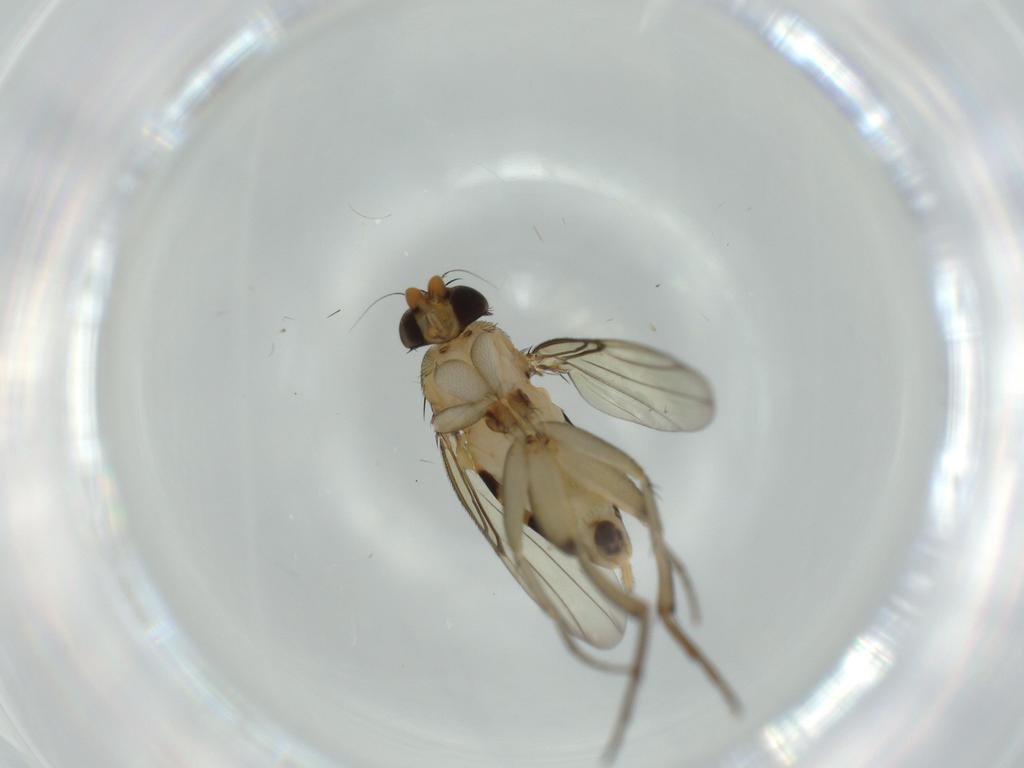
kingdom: Animalia
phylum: Arthropoda
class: Insecta
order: Diptera
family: Phoridae
